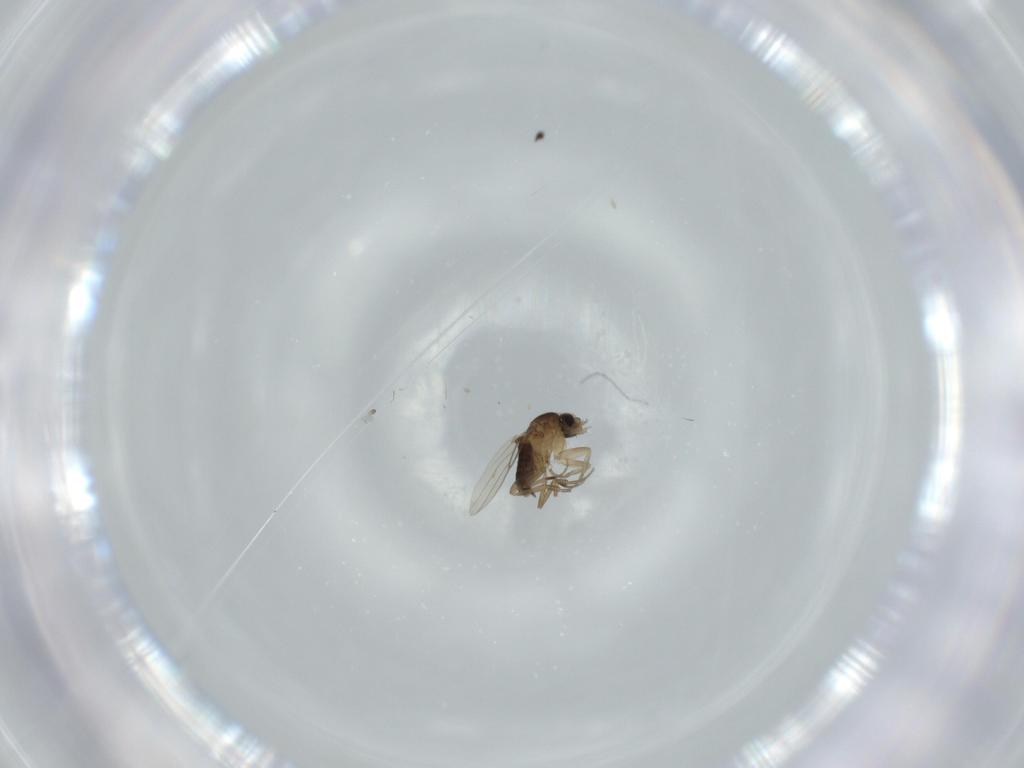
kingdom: Animalia
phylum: Arthropoda
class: Insecta
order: Diptera
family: Phoridae
